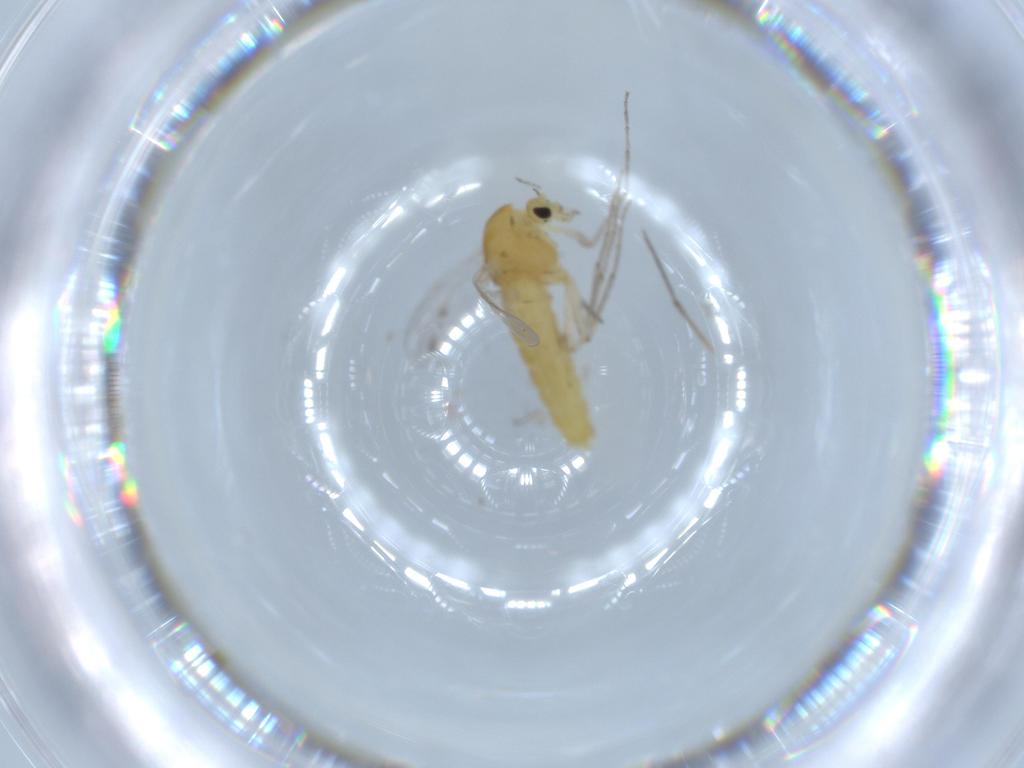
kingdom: Animalia
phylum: Arthropoda
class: Insecta
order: Diptera
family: Chironomidae
